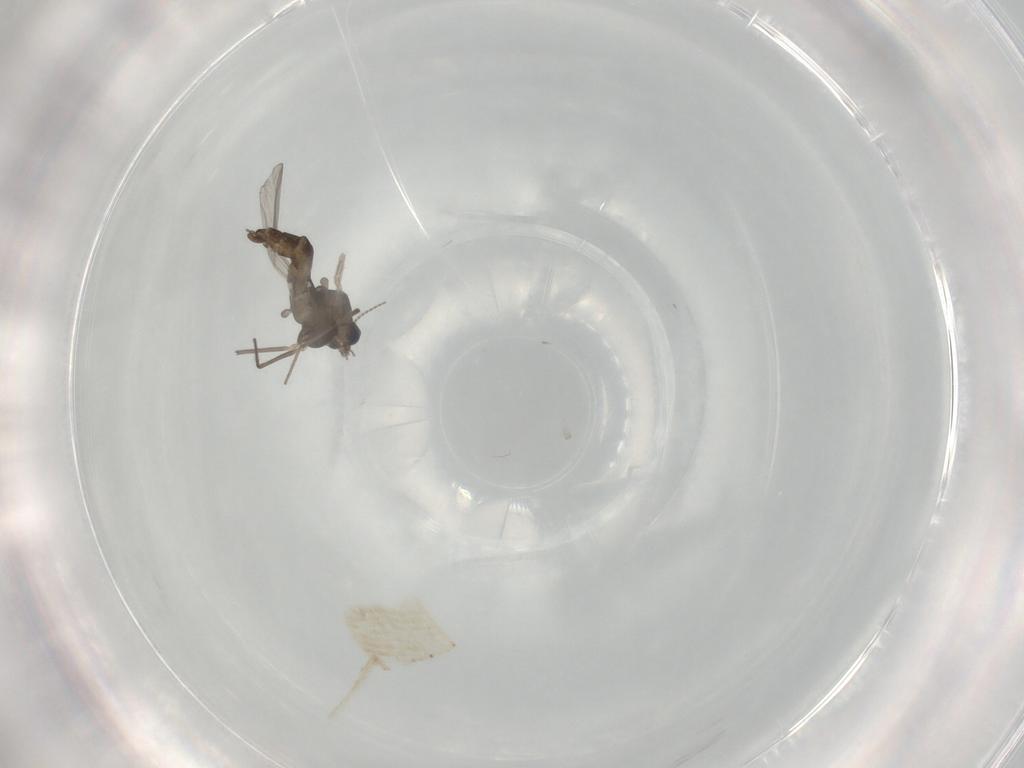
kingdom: Animalia
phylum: Arthropoda
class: Insecta
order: Diptera
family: Chironomidae
